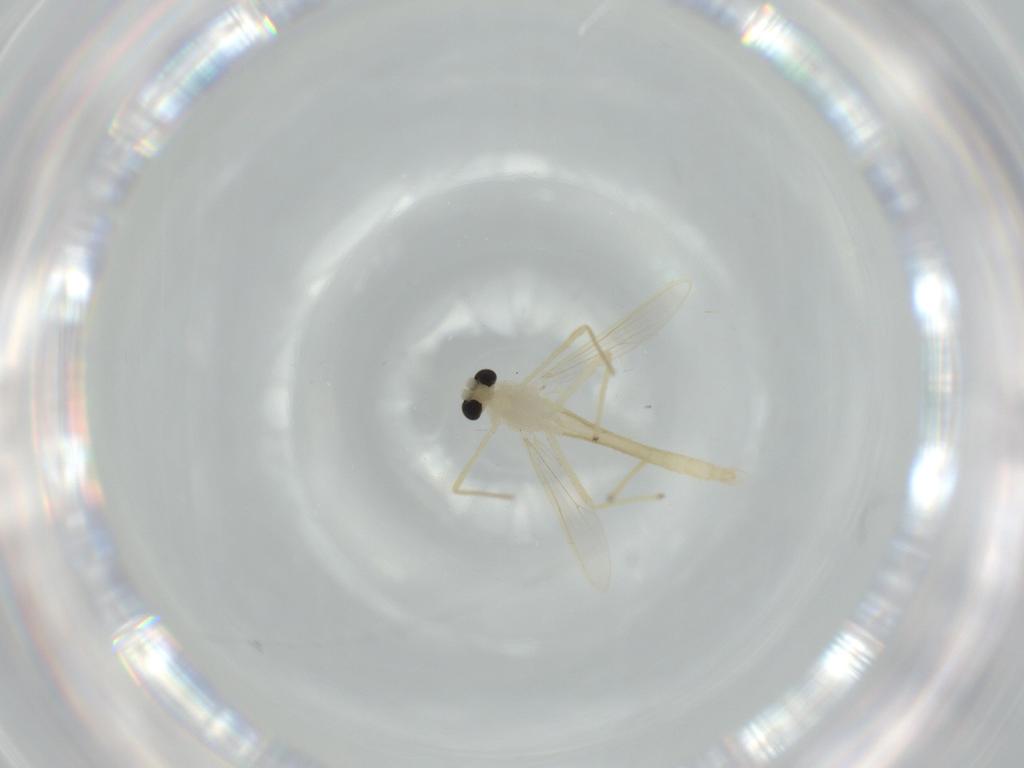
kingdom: Animalia
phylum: Arthropoda
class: Insecta
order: Diptera
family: Chironomidae
